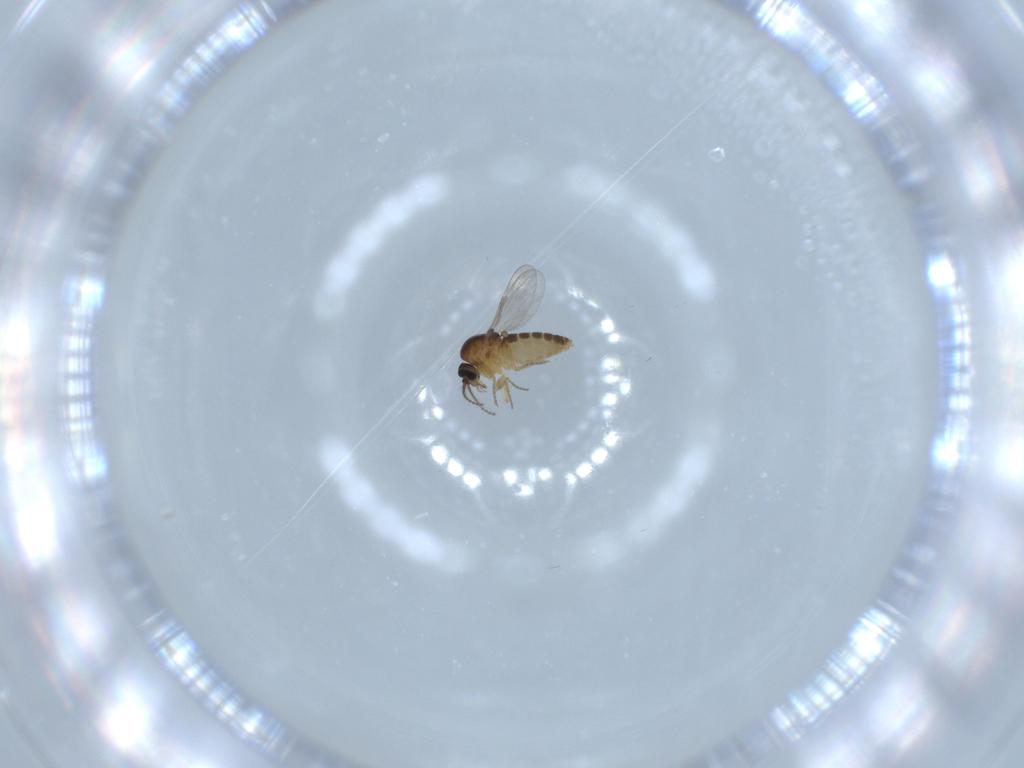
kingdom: Animalia
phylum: Arthropoda
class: Insecta
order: Diptera
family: Ceratopogonidae
